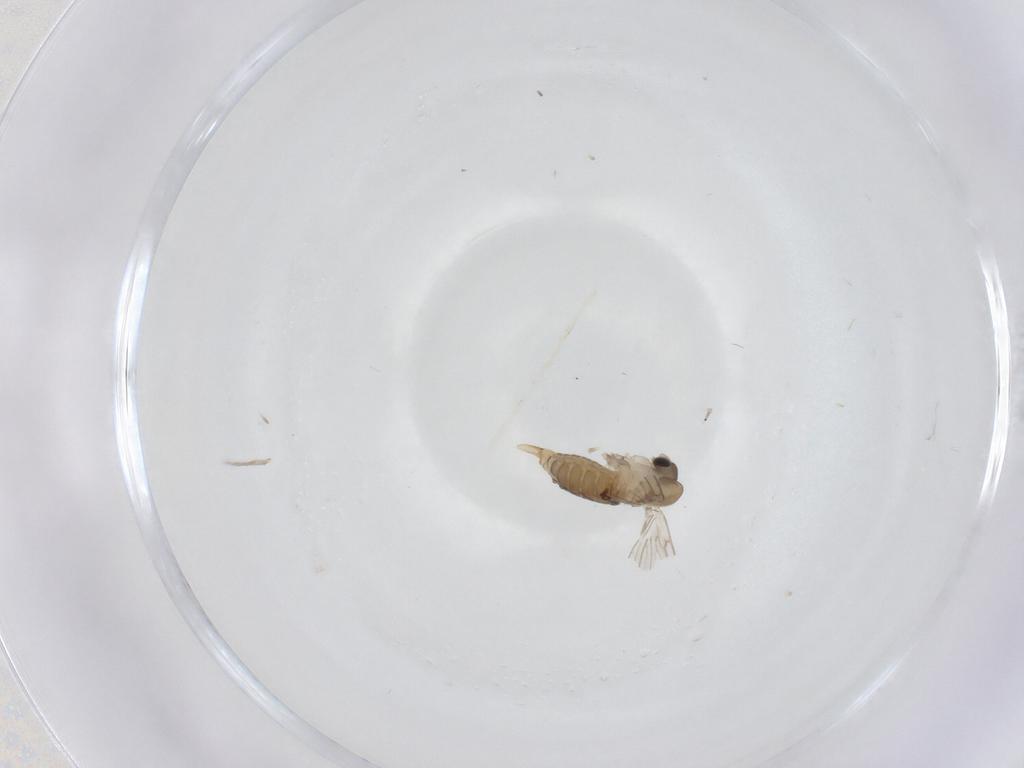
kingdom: Animalia
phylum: Arthropoda
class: Insecta
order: Diptera
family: Psychodidae
